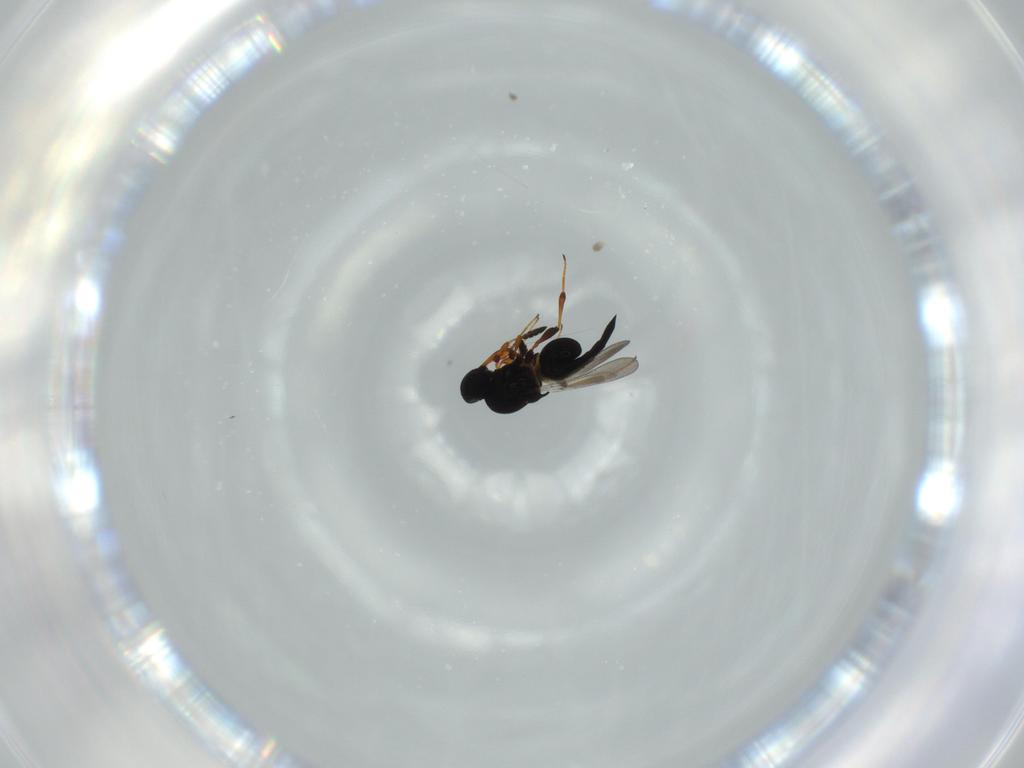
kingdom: Animalia
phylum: Arthropoda
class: Insecta
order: Hymenoptera
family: Platygastridae
